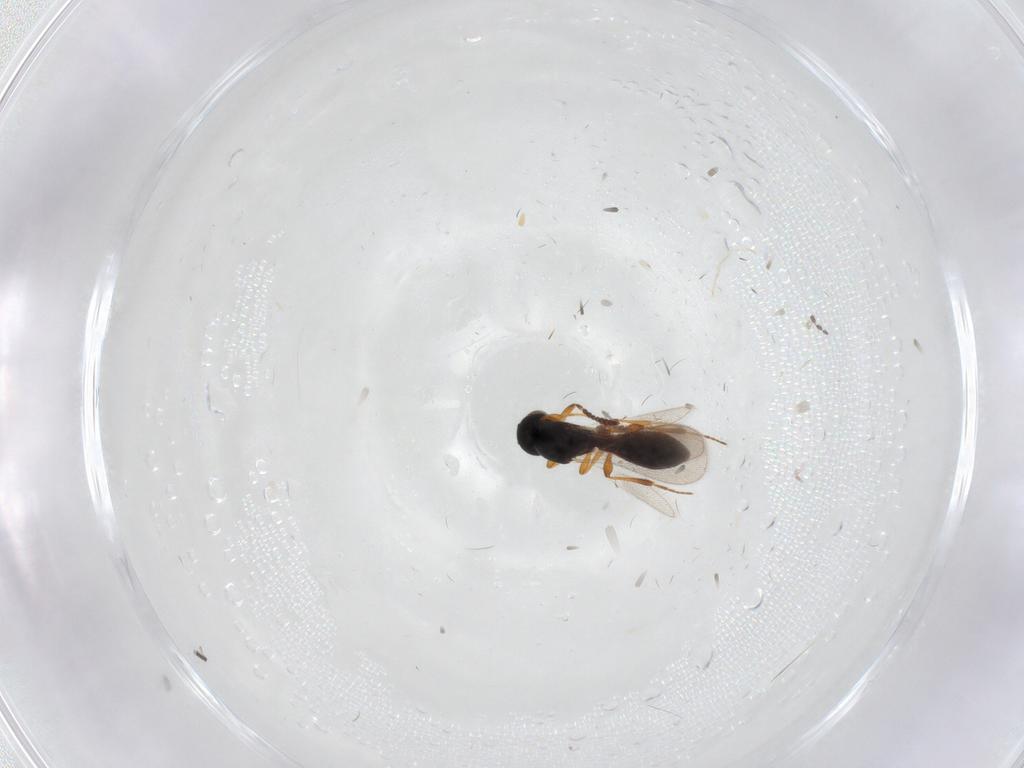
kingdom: Animalia
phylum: Arthropoda
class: Insecta
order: Hymenoptera
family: Platygastridae
